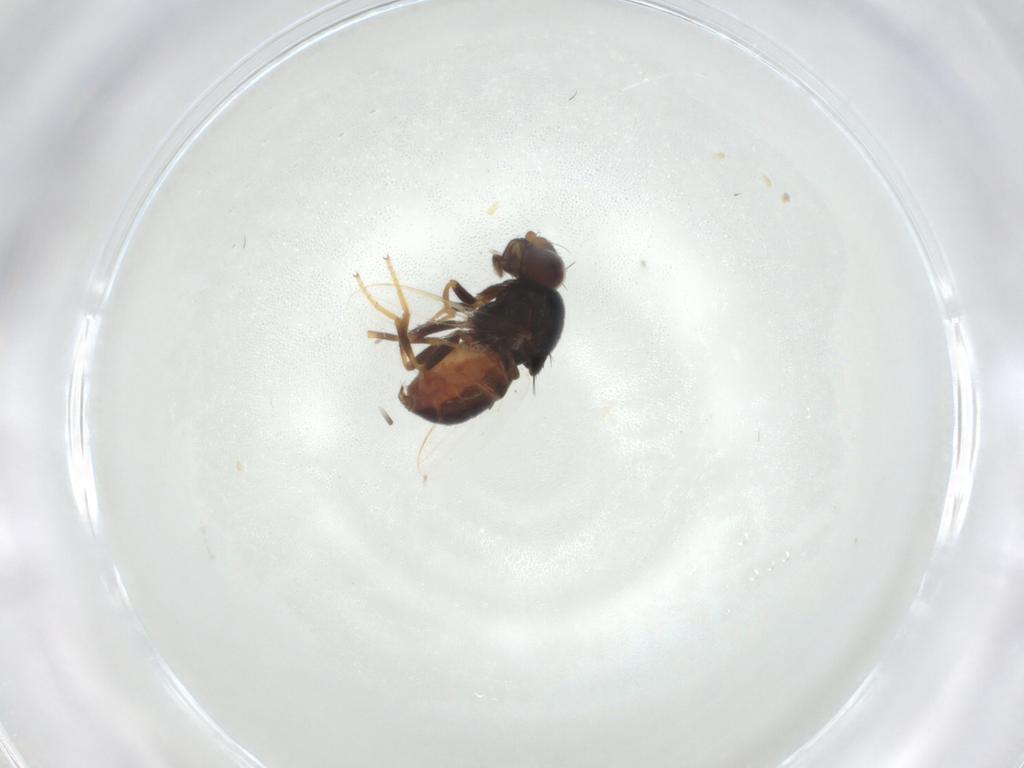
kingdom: Animalia
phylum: Arthropoda
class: Insecta
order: Diptera
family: Chloropidae
